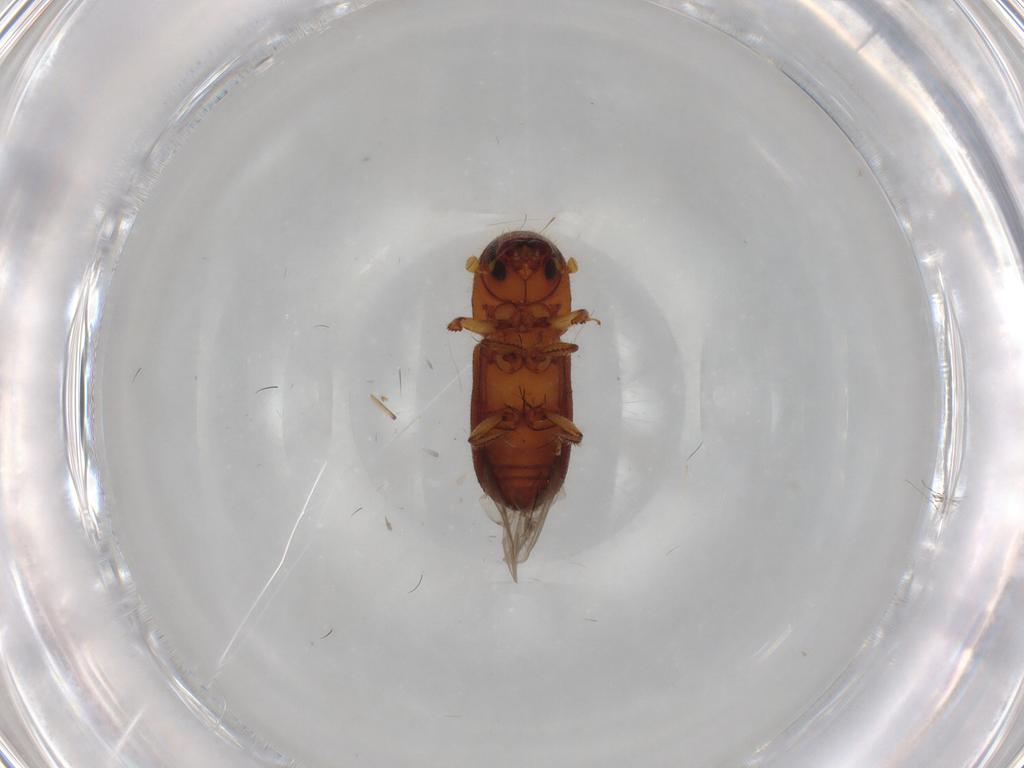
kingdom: Animalia
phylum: Arthropoda
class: Insecta
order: Coleoptera
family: Curculionidae
